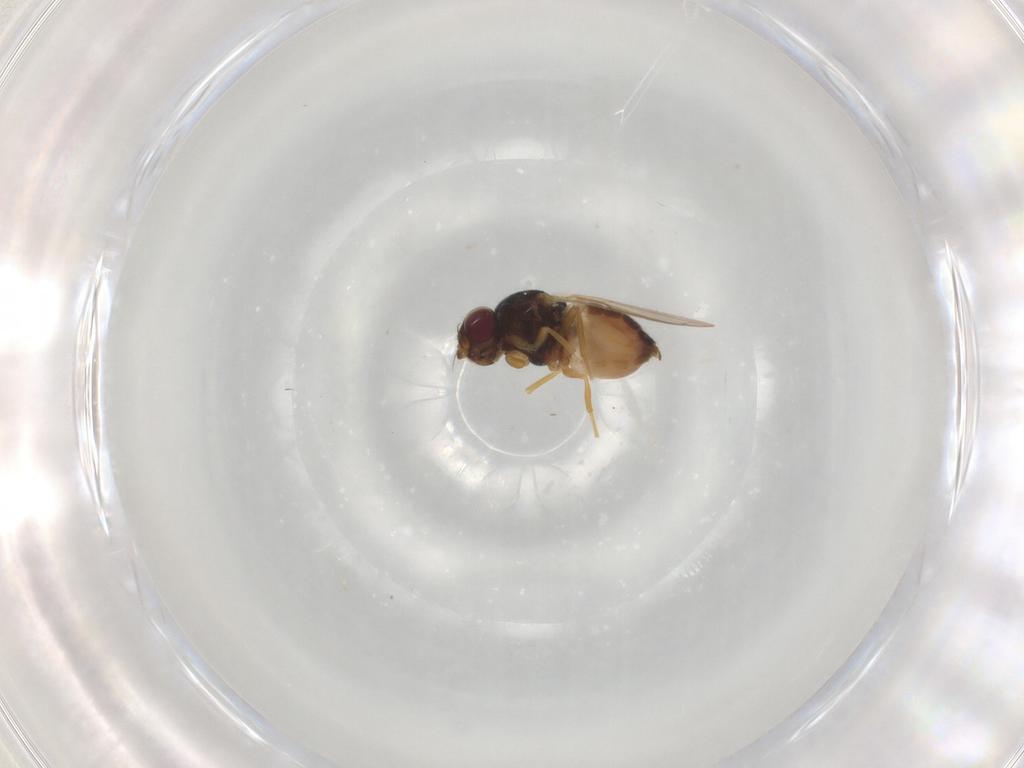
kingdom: Animalia
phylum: Arthropoda
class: Insecta
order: Diptera
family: Chloropidae
